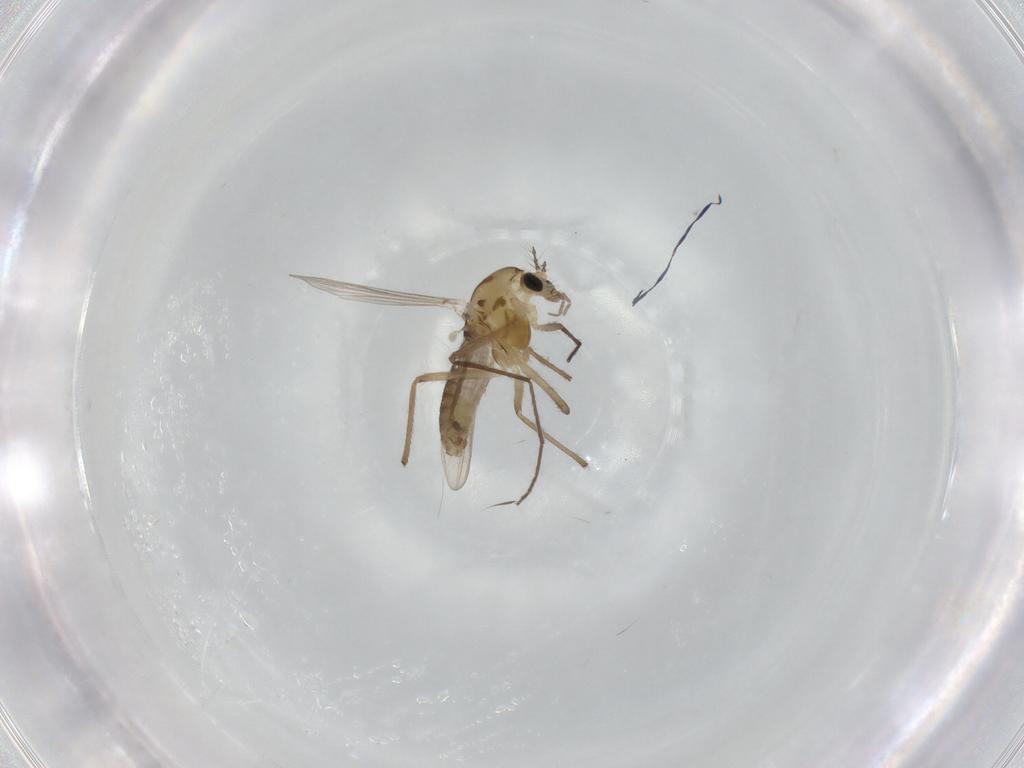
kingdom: Animalia
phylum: Arthropoda
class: Insecta
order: Diptera
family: Chironomidae
